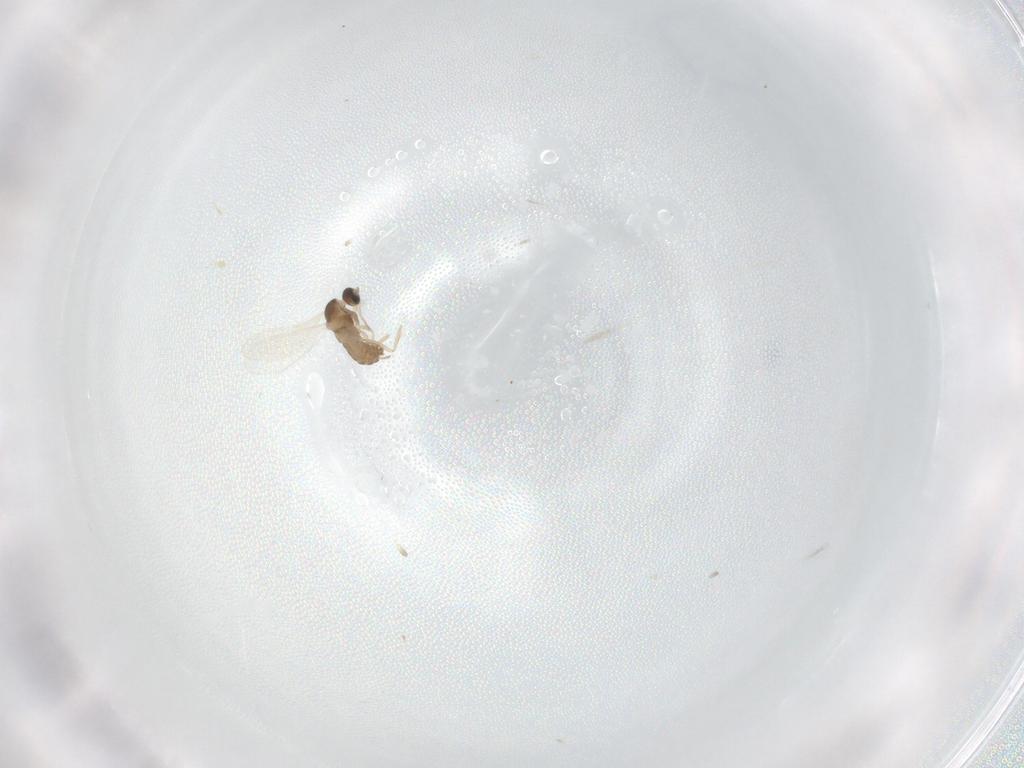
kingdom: Animalia
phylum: Arthropoda
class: Insecta
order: Diptera
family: Cecidomyiidae
